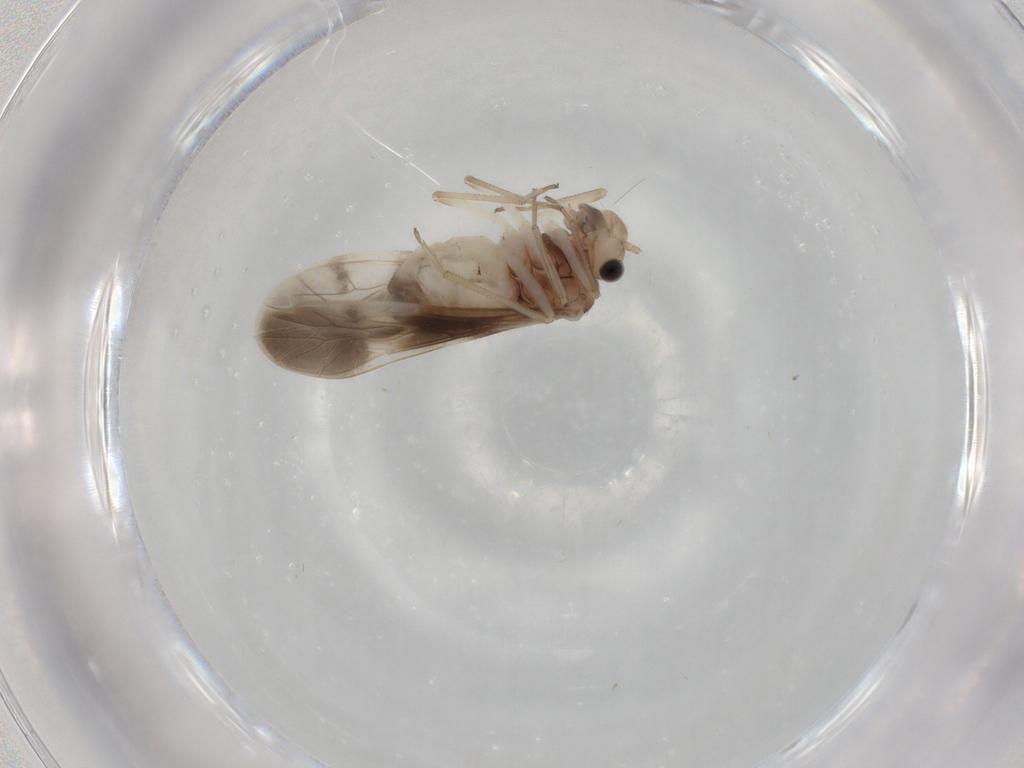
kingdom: Animalia
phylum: Arthropoda
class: Insecta
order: Psocodea
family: Caeciliusidae
